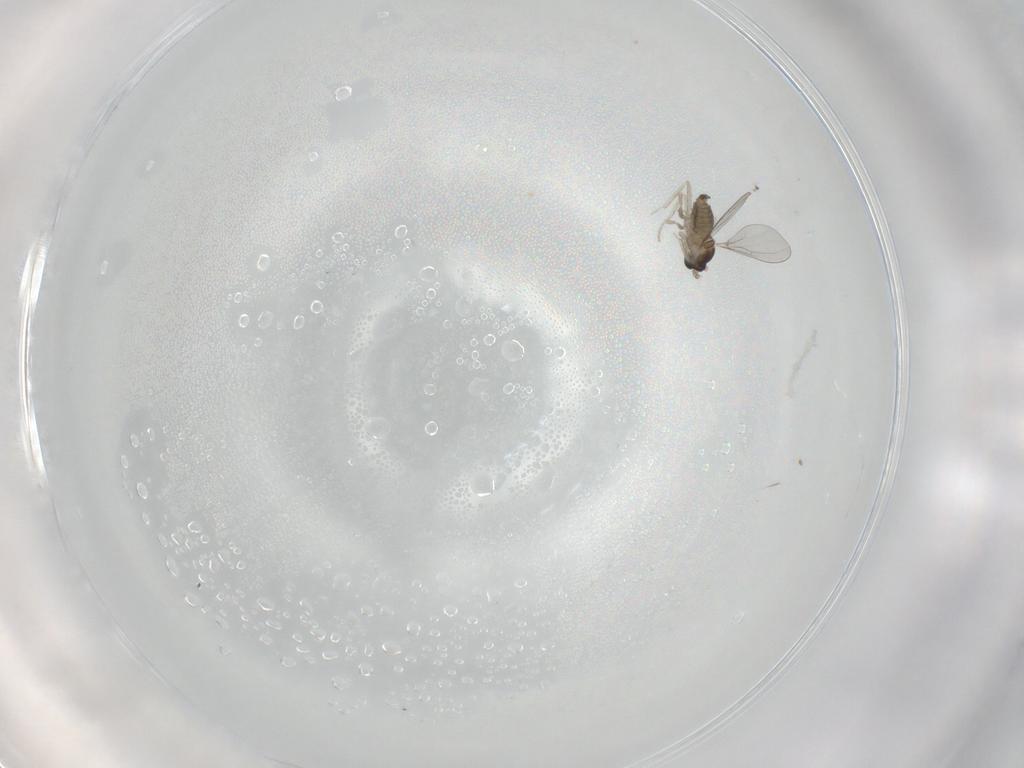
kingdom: Animalia
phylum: Arthropoda
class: Insecta
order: Diptera
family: Cecidomyiidae
